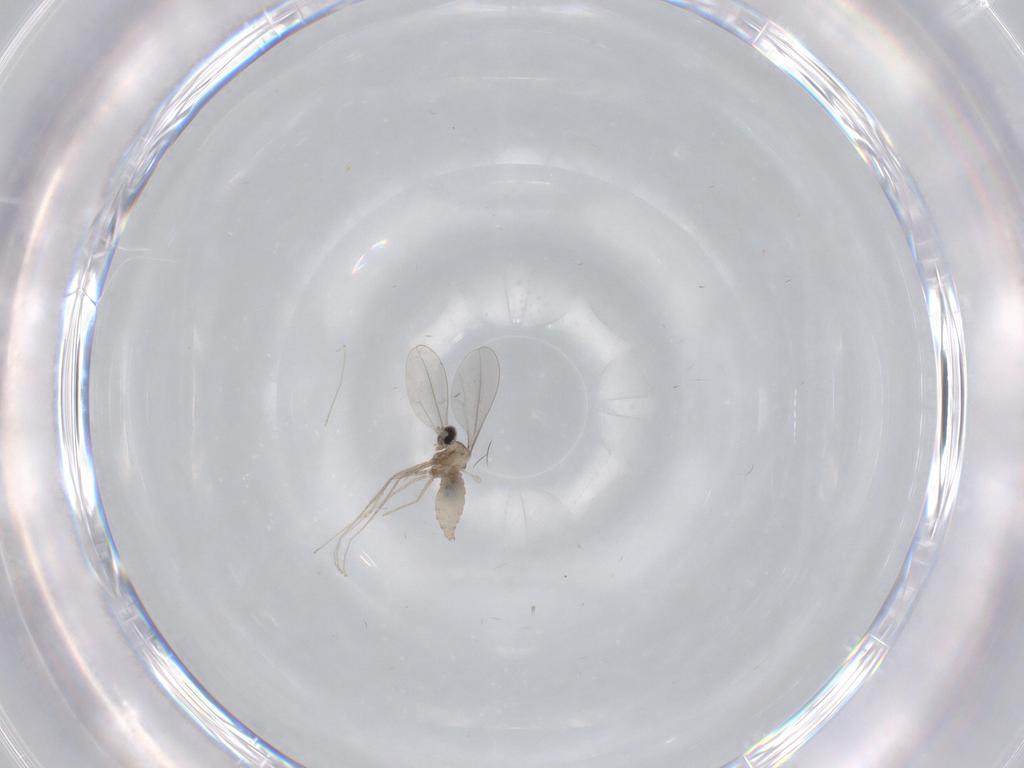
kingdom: Animalia
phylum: Arthropoda
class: Insecta
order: Diptera
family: Cecidomyiidae
